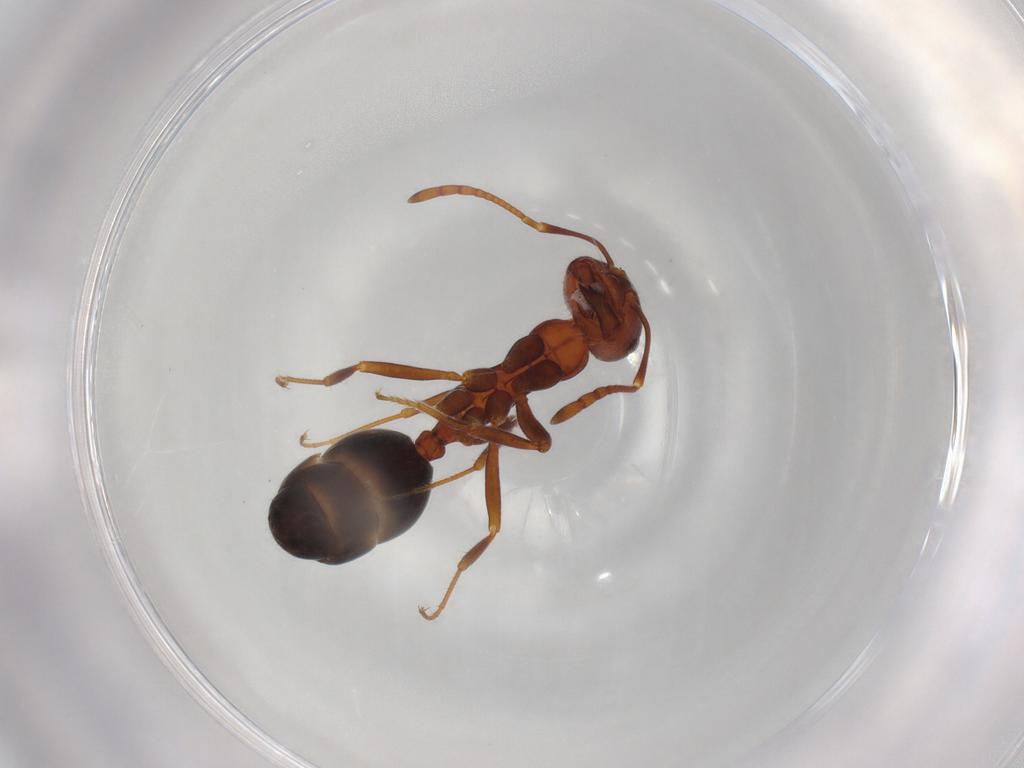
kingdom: Animalia
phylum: Arthropoda
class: Insecta
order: Hymenoptera
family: Formicidae
